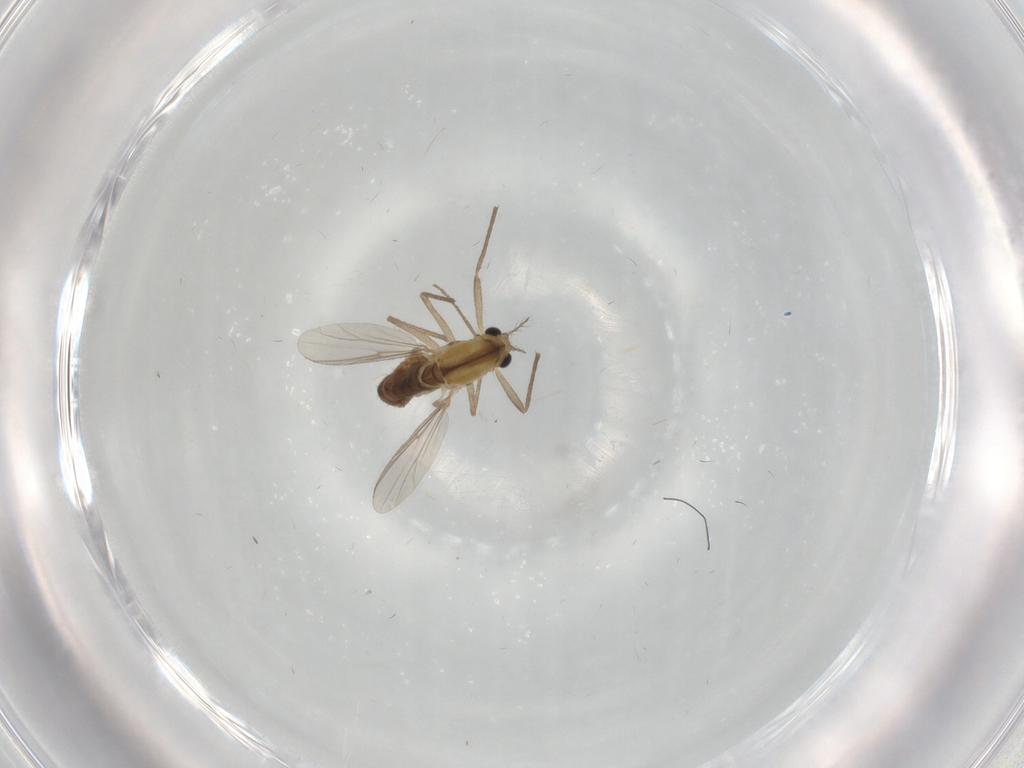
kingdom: Animalia
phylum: Arthropoda
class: Insecta
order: Diptera
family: Chironomidae
